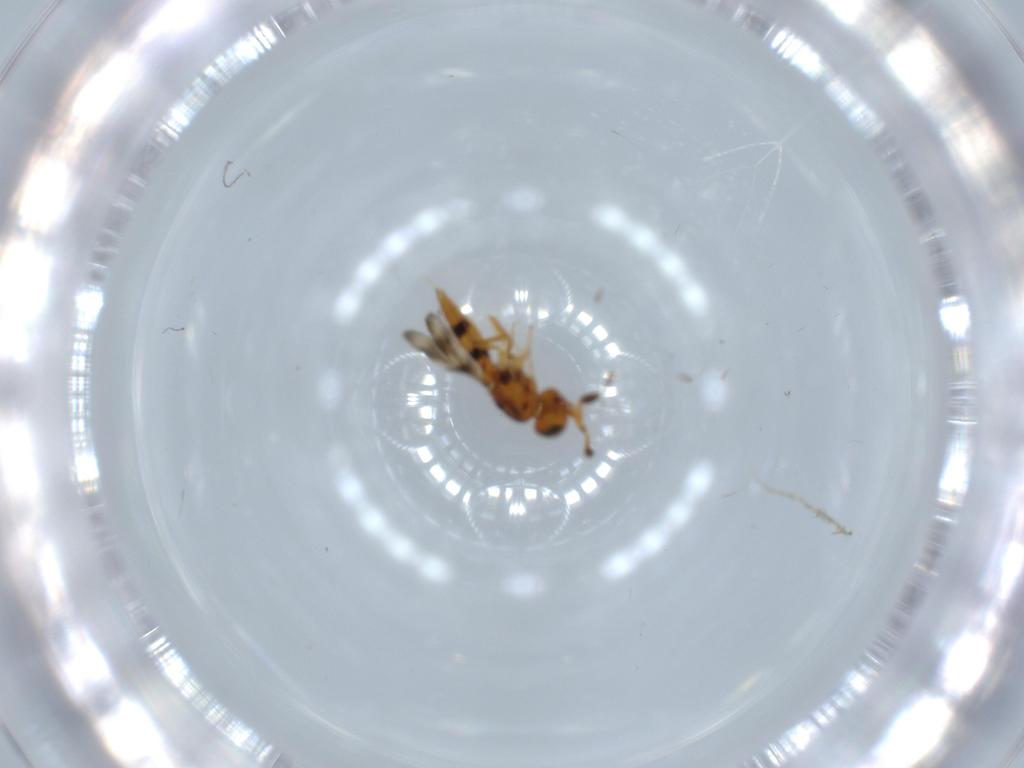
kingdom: Animalia
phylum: Arthropoda
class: Insecta
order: Hymenoptera
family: Scelionidae
